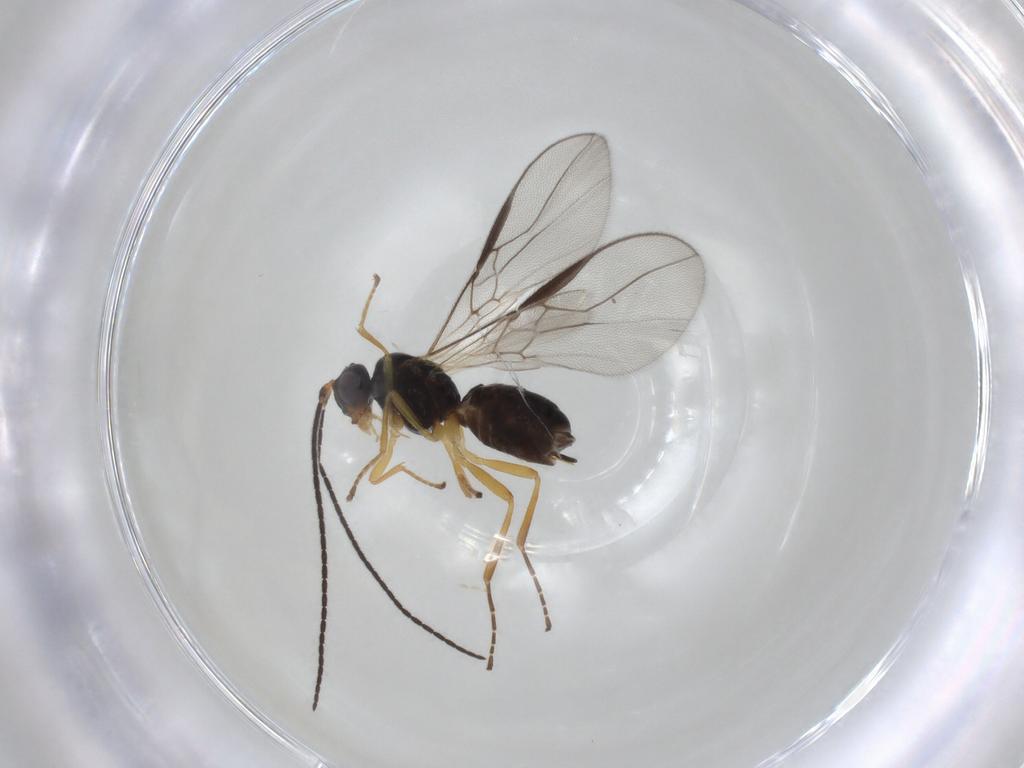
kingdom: Animalia
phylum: Arthropoda
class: Insecta
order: Hymenoptera
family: Braconidae
